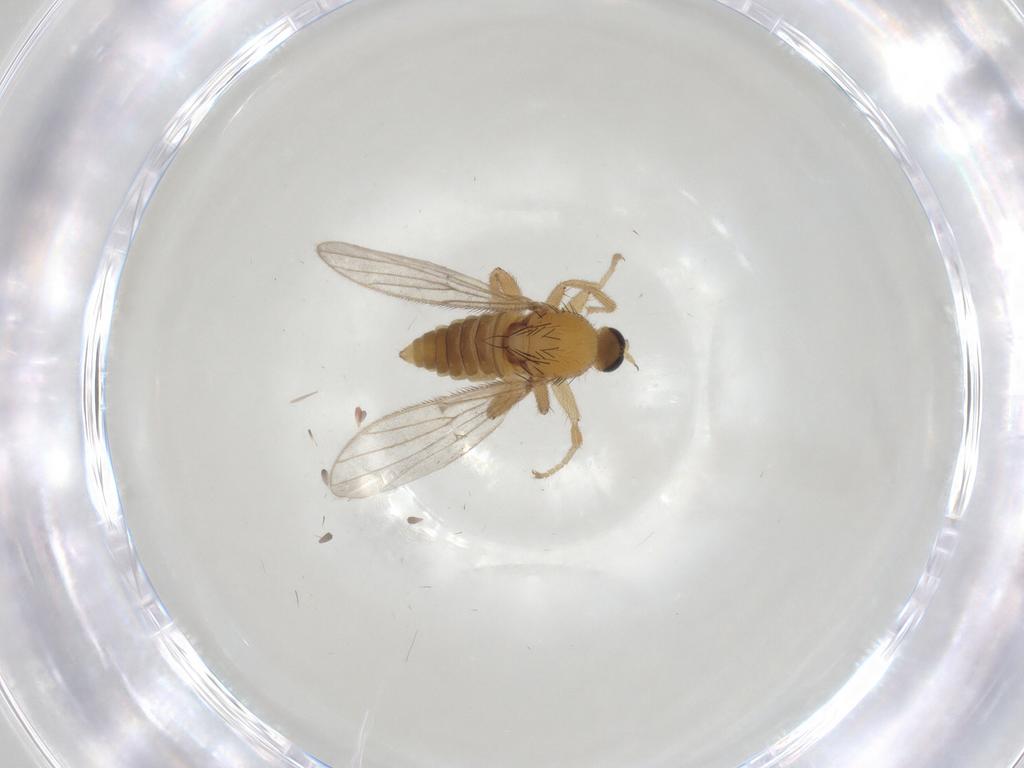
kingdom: Animalia
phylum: Arthropoda
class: Insecta
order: Diptera
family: Hybotidae
